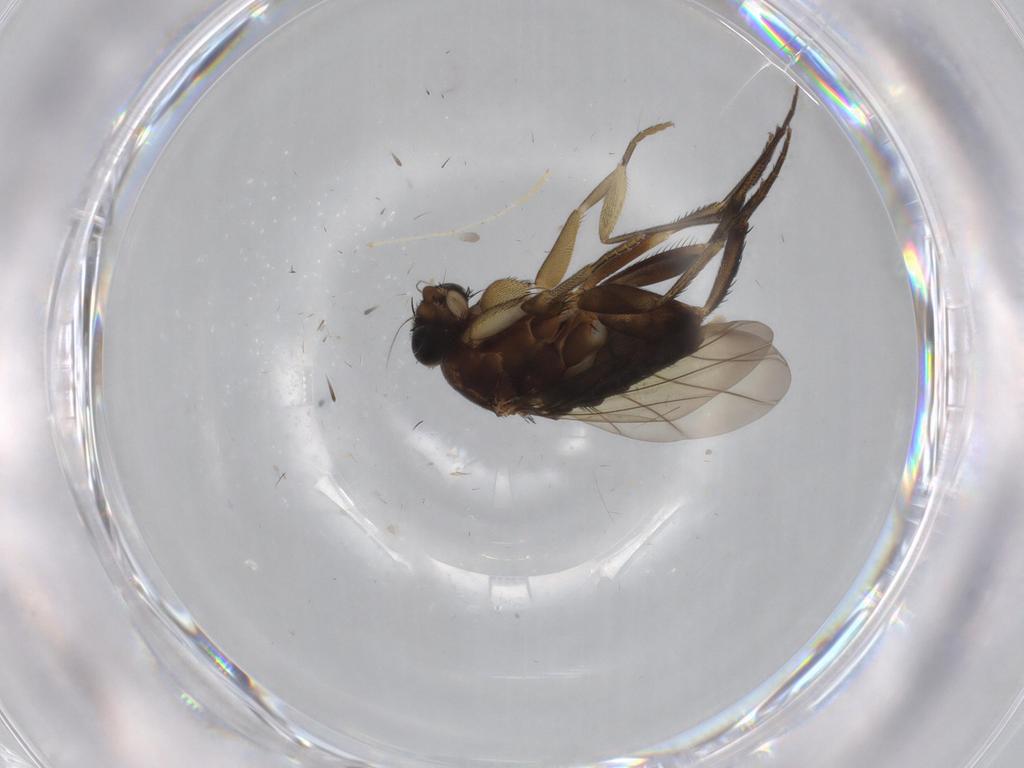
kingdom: Animalia
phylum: Arthropoda
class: Insecta
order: Diptera
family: Phoridae
